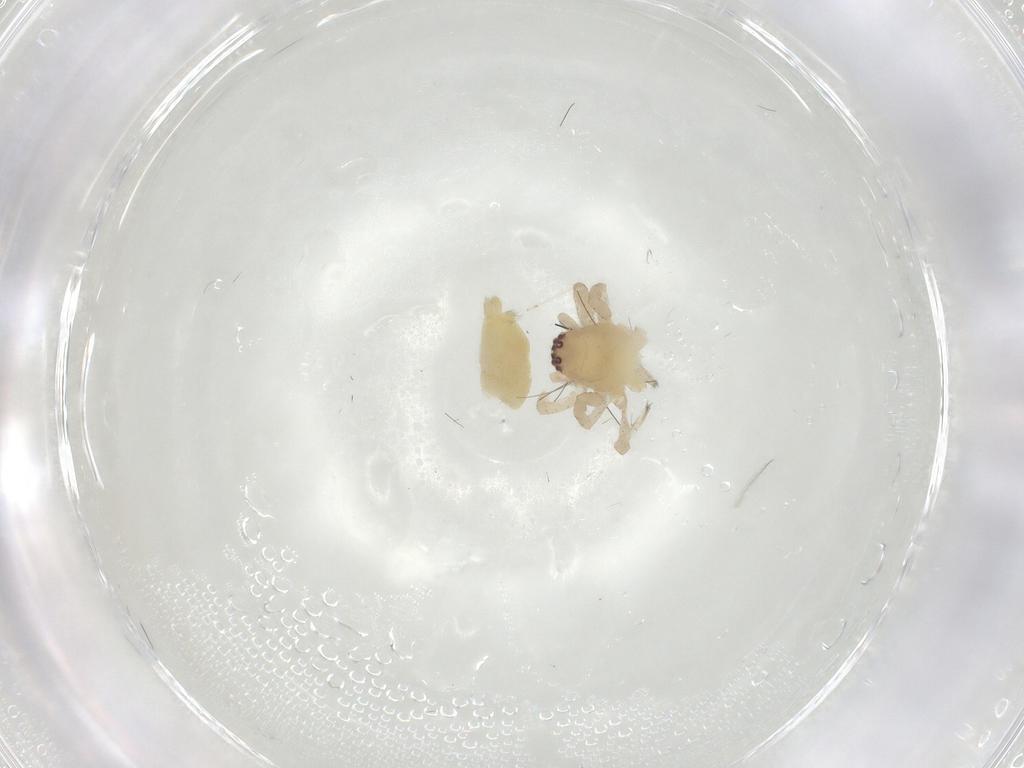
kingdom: Animalia
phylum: Arthropoda
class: Arachnida
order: Araneae
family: Clubionidae
